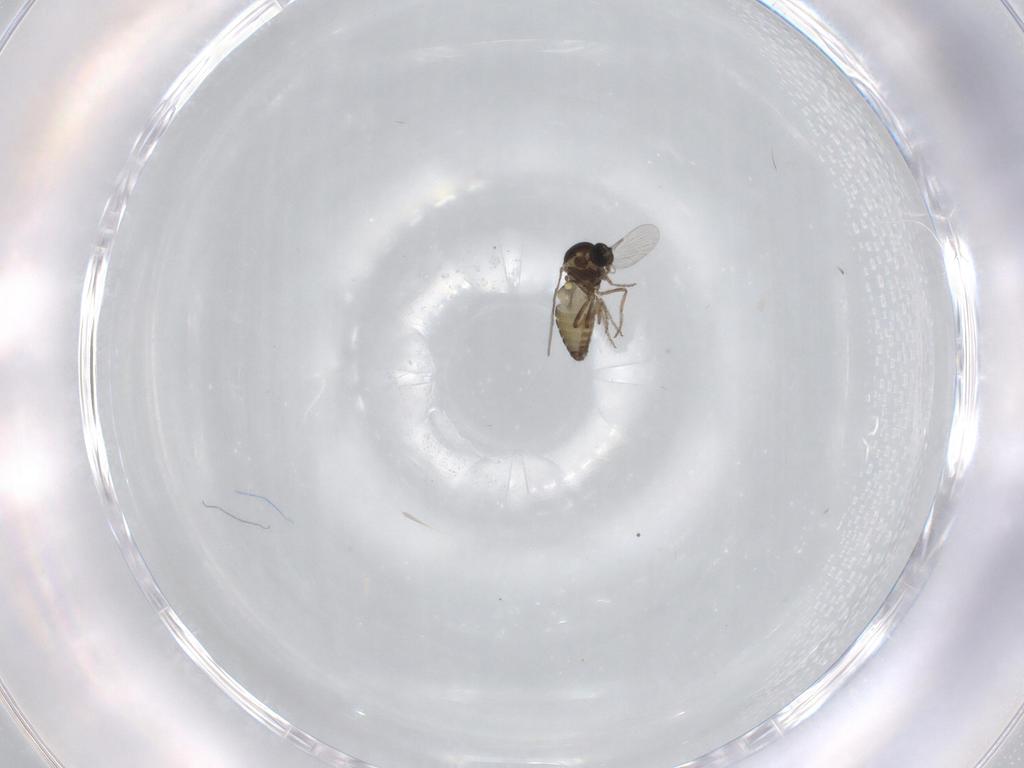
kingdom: Animalia
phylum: Arthropoda
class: Insecta
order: Diptera
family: Ceratopogonidae
